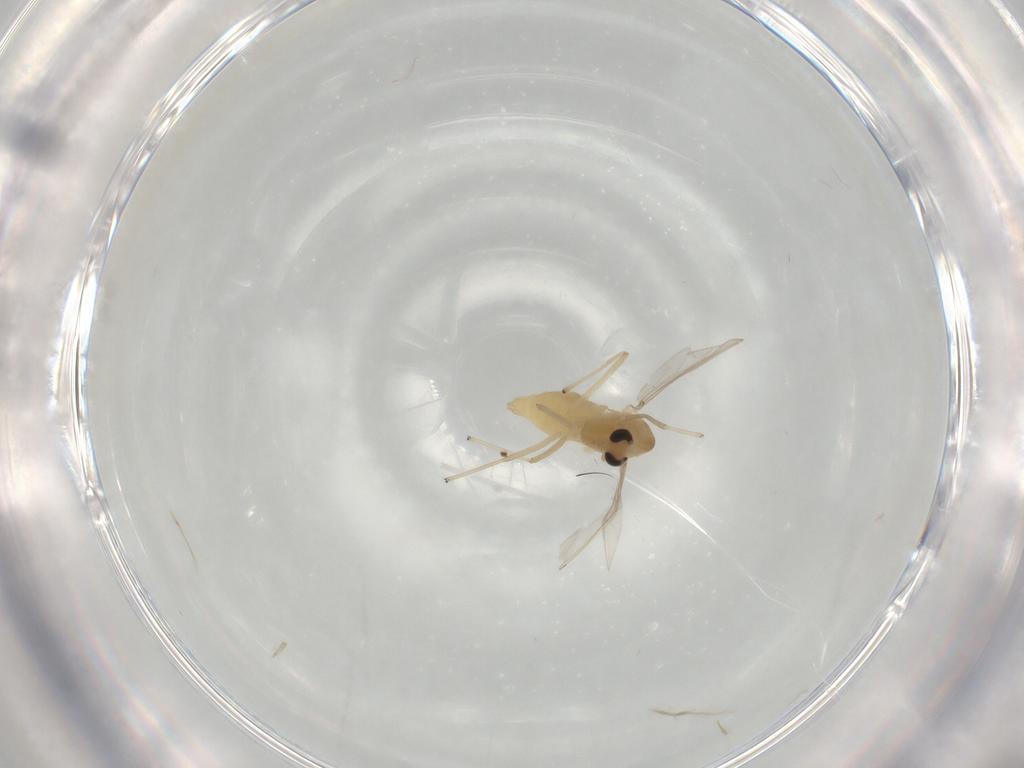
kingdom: Animalia
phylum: Arthropoda
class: Insecta
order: Diptera
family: Chironomidae
